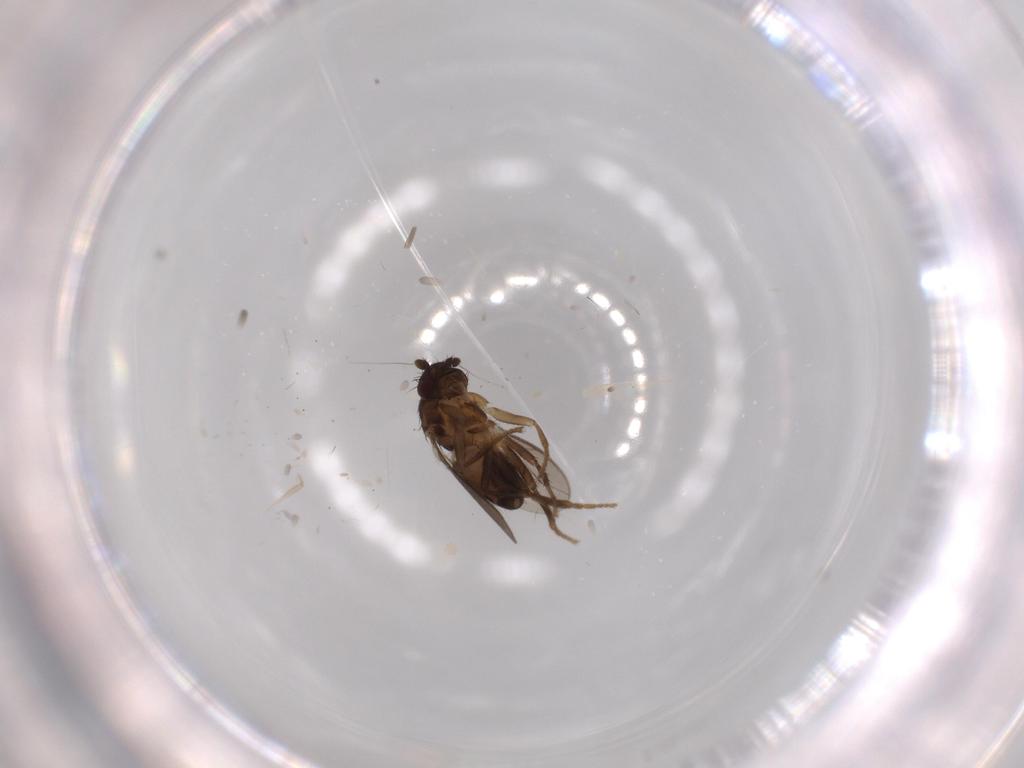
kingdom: Animalia
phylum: Arthropoda
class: Insecta
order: Diptera
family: Sphaeroceridae
